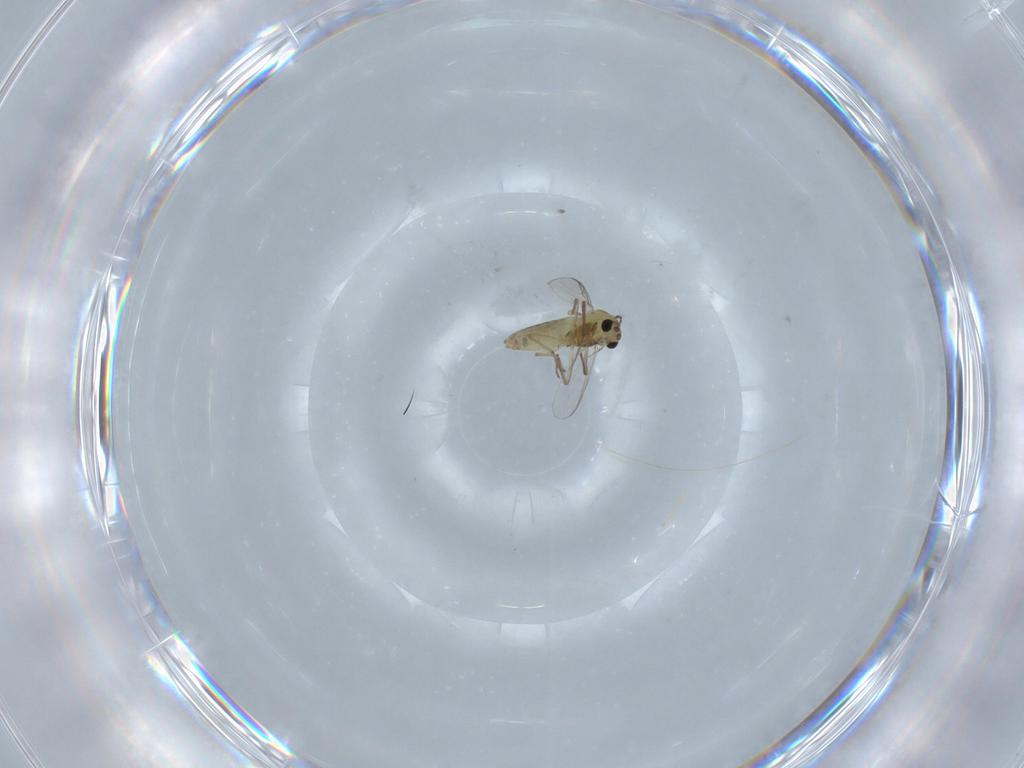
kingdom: Animalia
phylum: Arthropoda
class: Insecta
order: Diptera
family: Chironomidae
